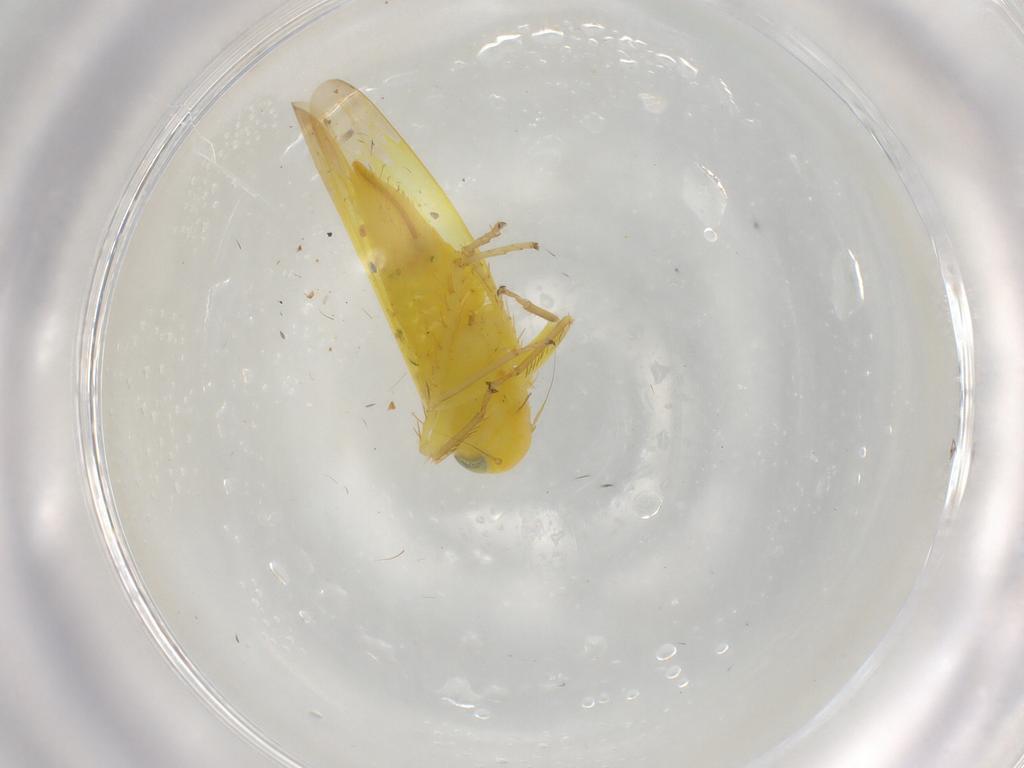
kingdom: Animalia
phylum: Arthropoda
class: Insecta
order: Hemiptera
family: Cicadellidae
